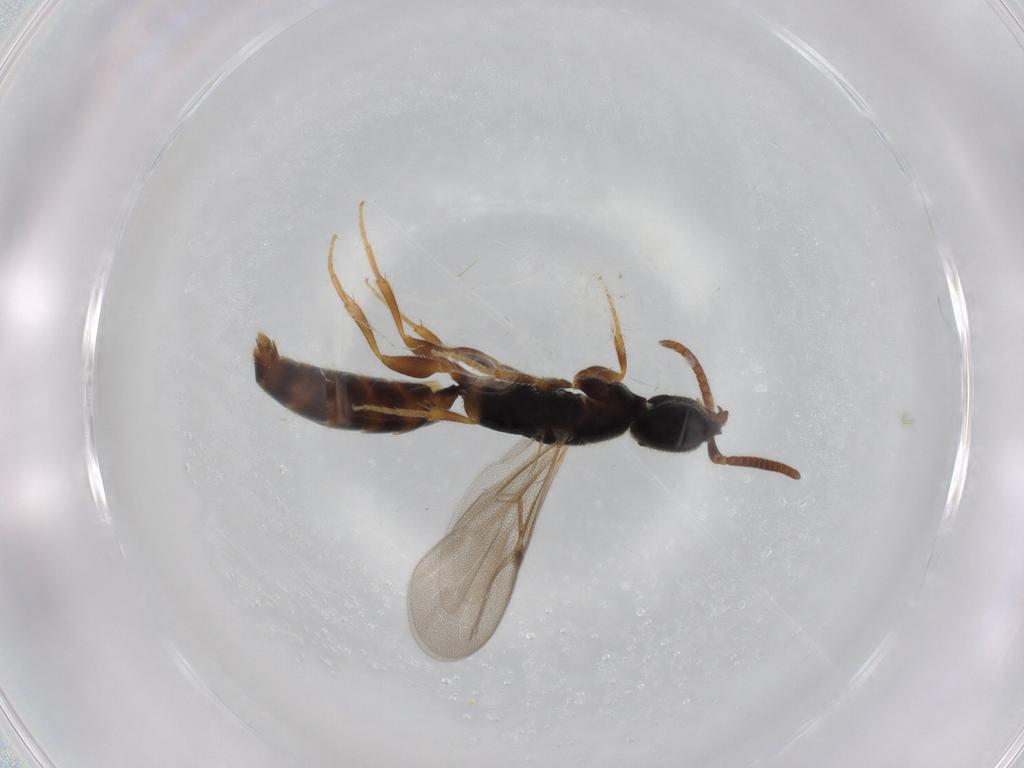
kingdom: Animalia
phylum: Arthropoda
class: Insecta
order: Hymenoptera
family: Bethylidae
